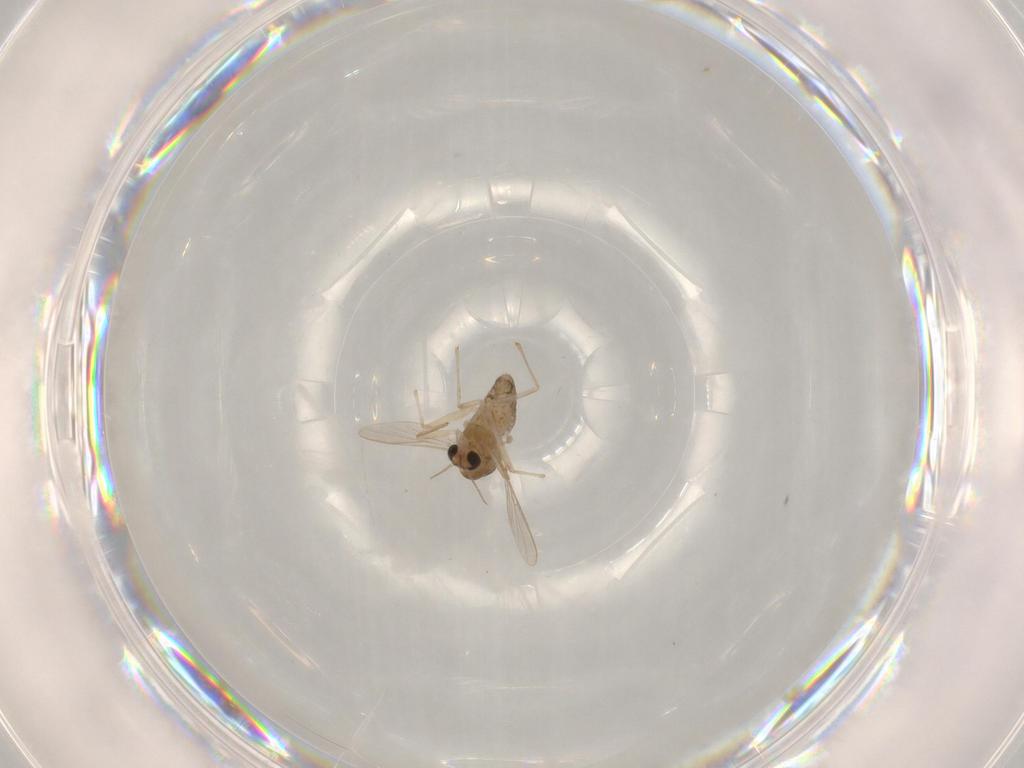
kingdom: Animalia
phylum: Arthropoda
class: Insecta
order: Diptera
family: Chironomidae
